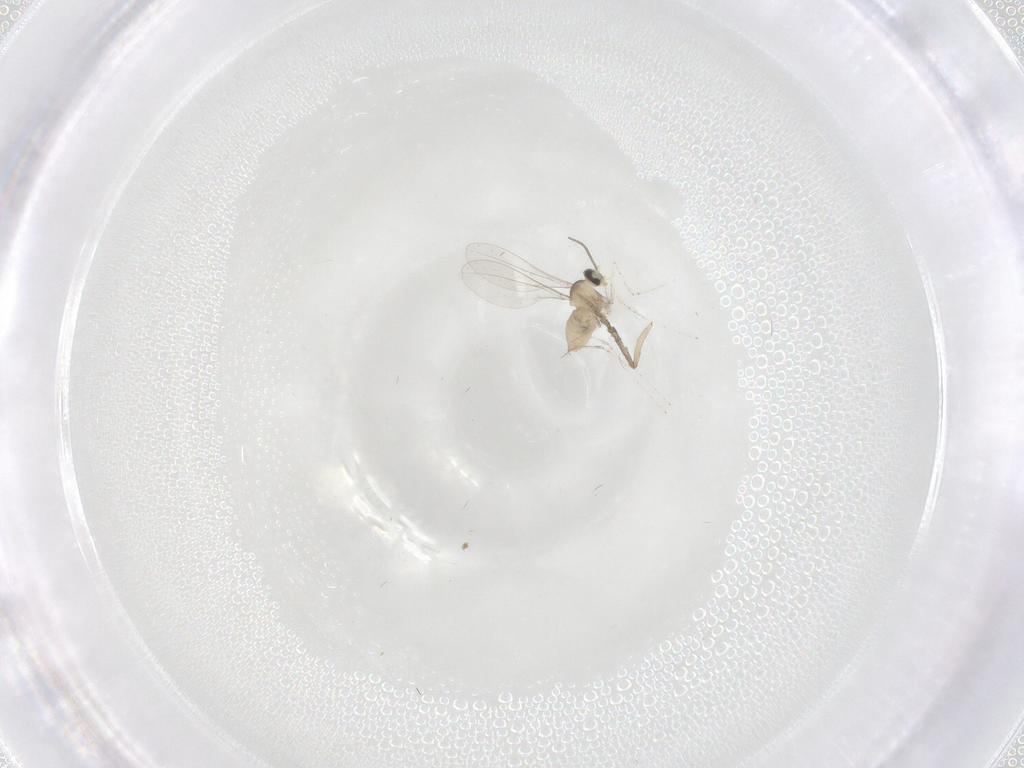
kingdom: Animalia
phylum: Arthropoda
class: Insecta
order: Diptera
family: Cecidomyiidae
